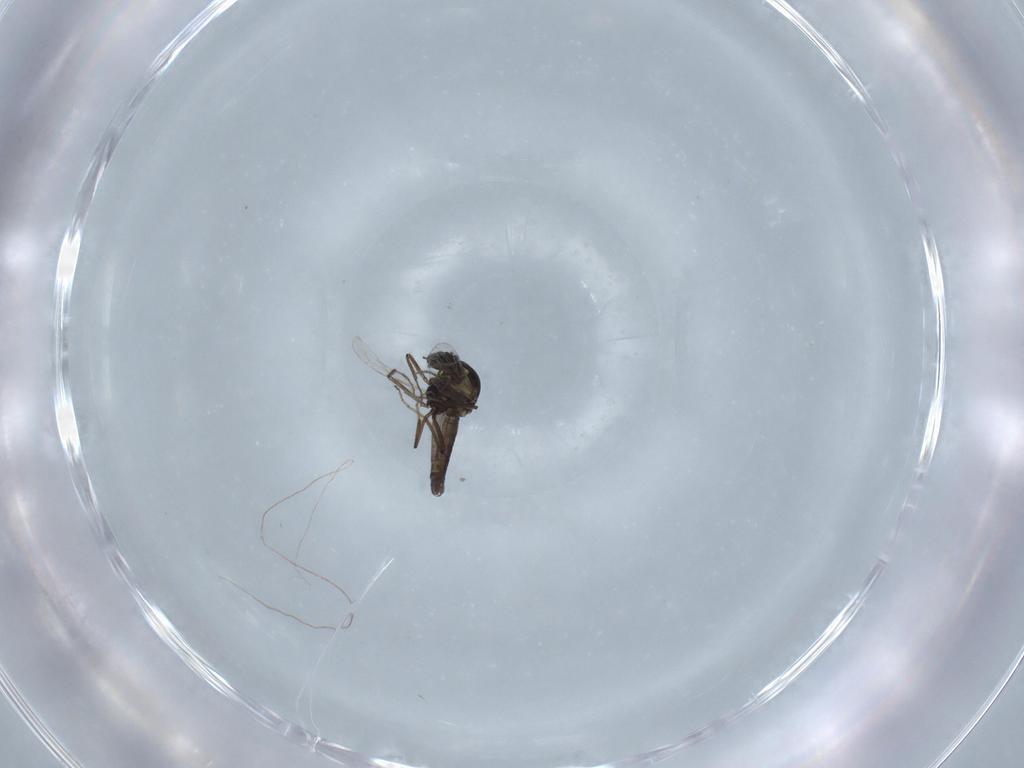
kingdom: Animalia
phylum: Arthropoda
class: Insecta
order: Diptera
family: Ceratopogonidae
